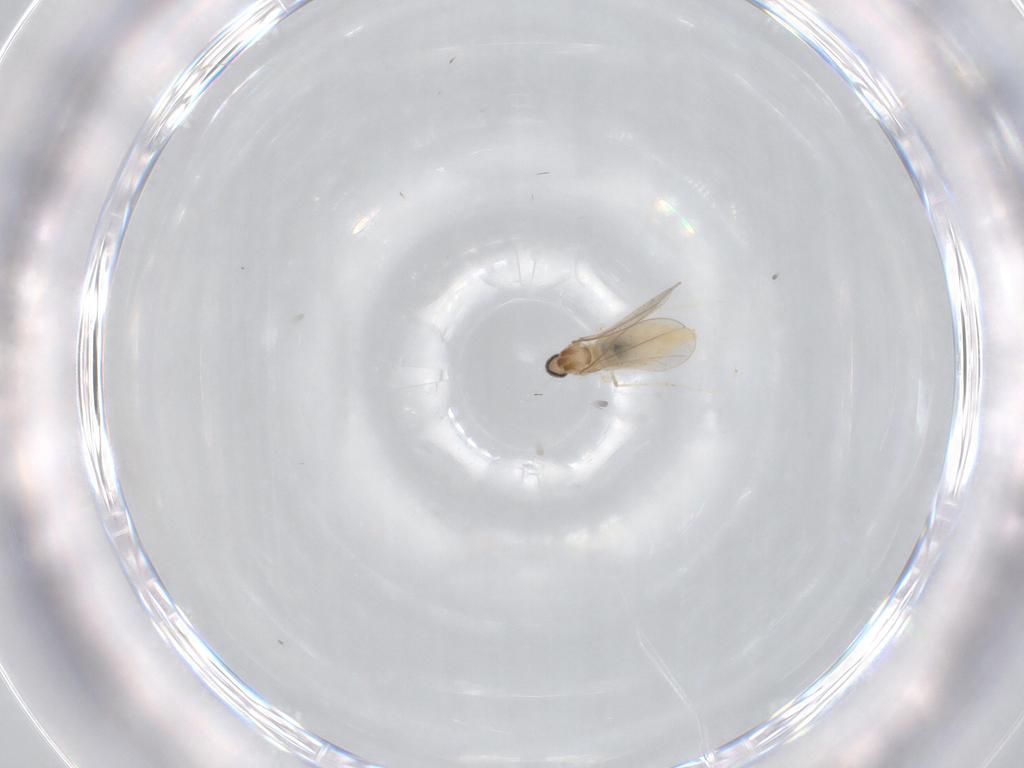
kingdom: Animalia
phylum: Arthropoda
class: Insecta
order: Diptera
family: Cecidomyiidae
